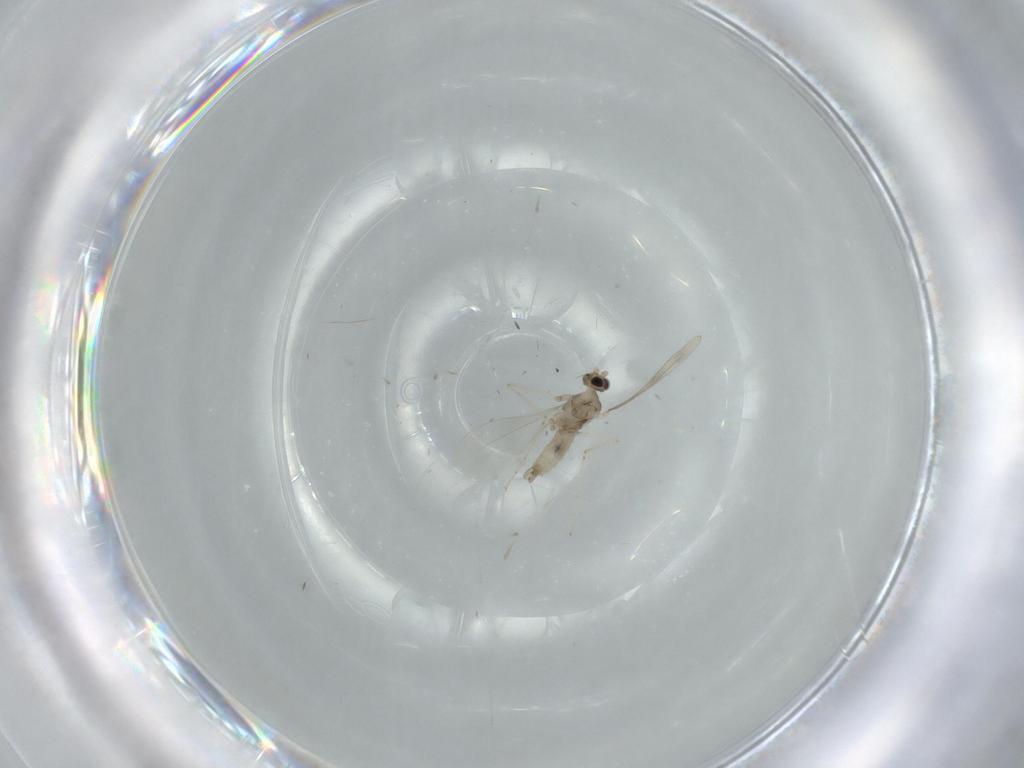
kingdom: Animalia
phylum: Arthropoda
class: Insecta
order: Diptera
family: Cecidomyiidae
